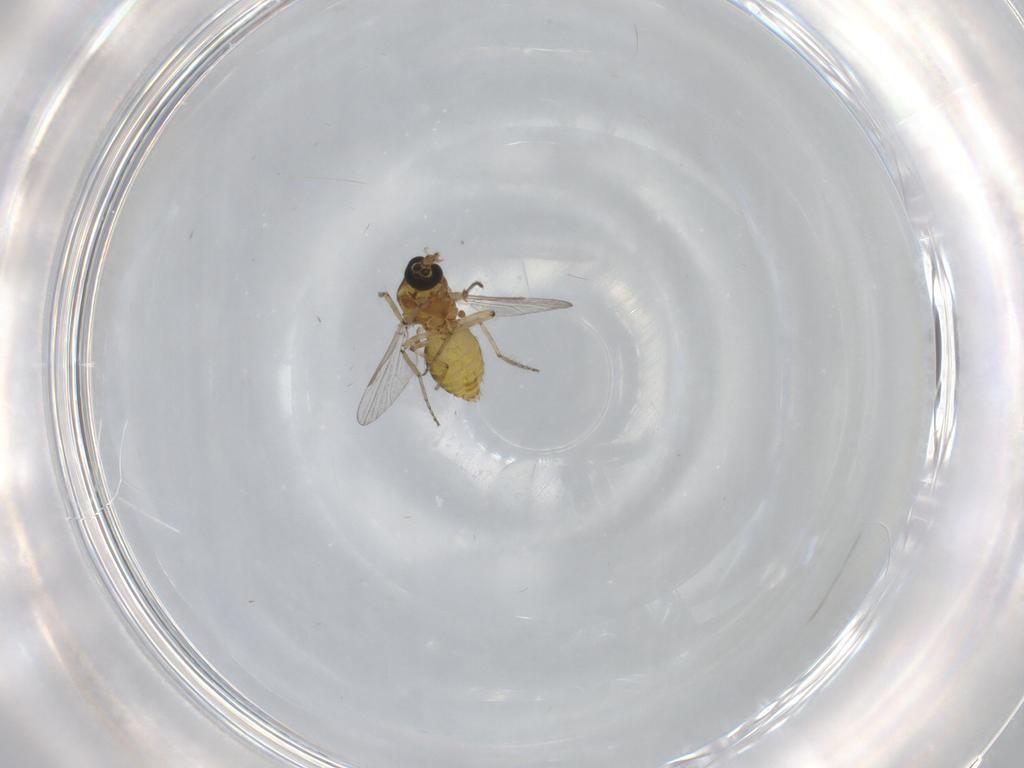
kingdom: Animalia
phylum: Arthropoda
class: Insecta
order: Diptera
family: Ceratopogonidae
